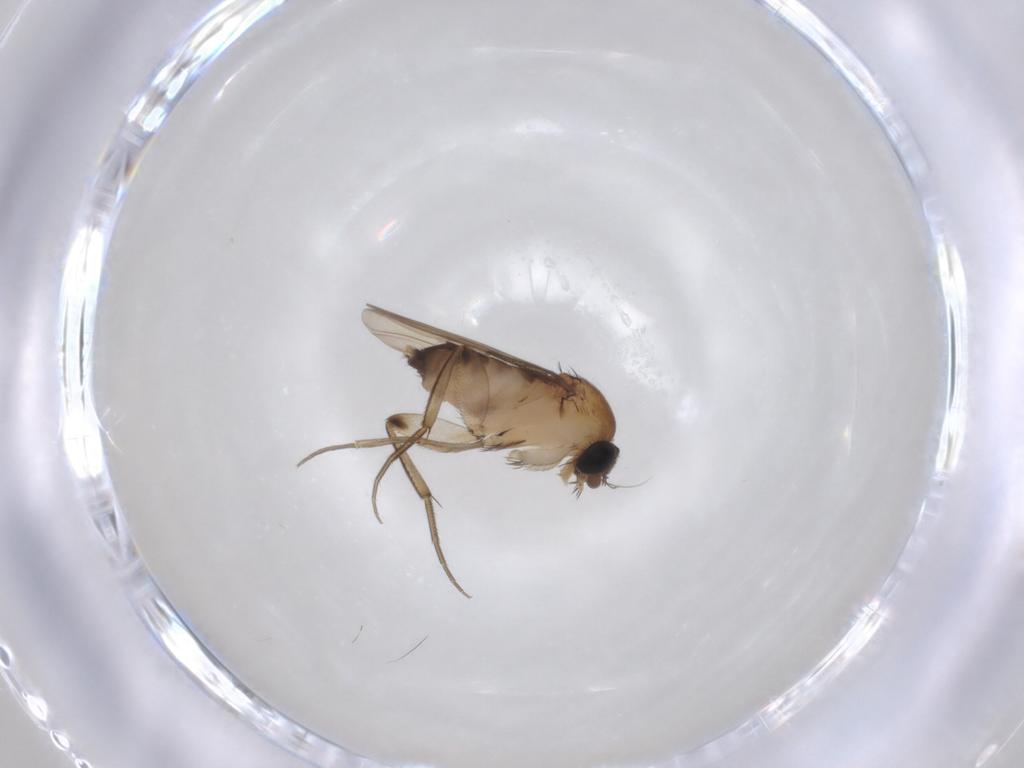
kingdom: Animalia
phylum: Arthropoda
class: Insecta
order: Diptera
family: Phoridae
